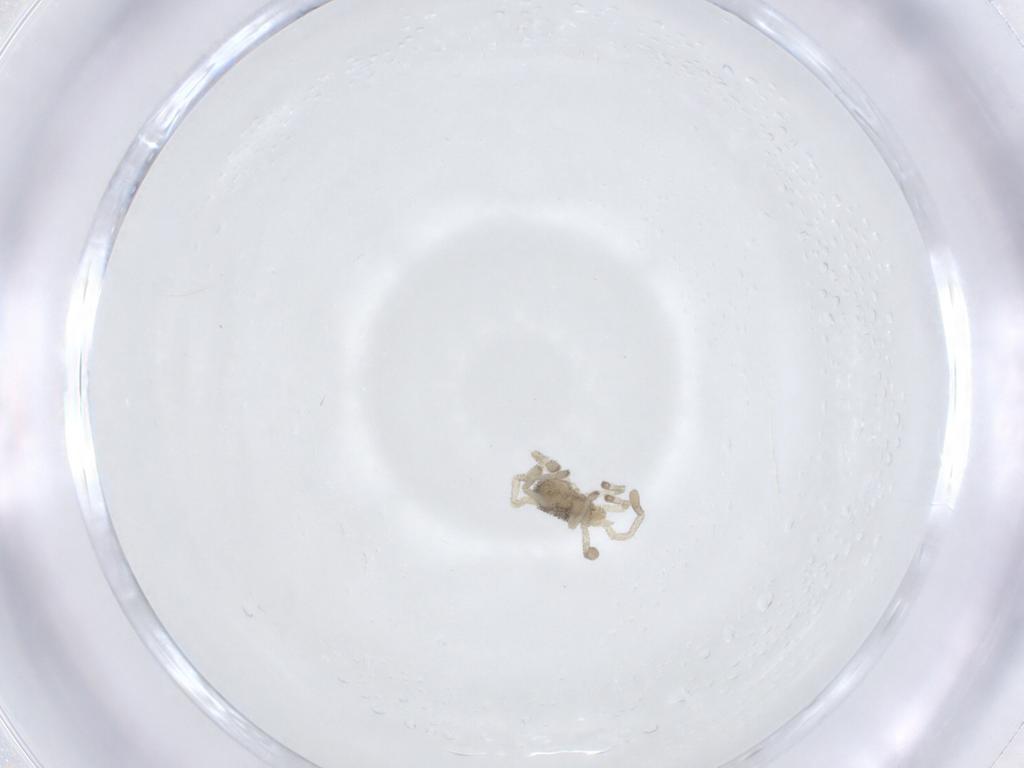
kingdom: Animalia
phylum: Arthropoda
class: Arachnida
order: Trombidiformes
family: Smarididae
